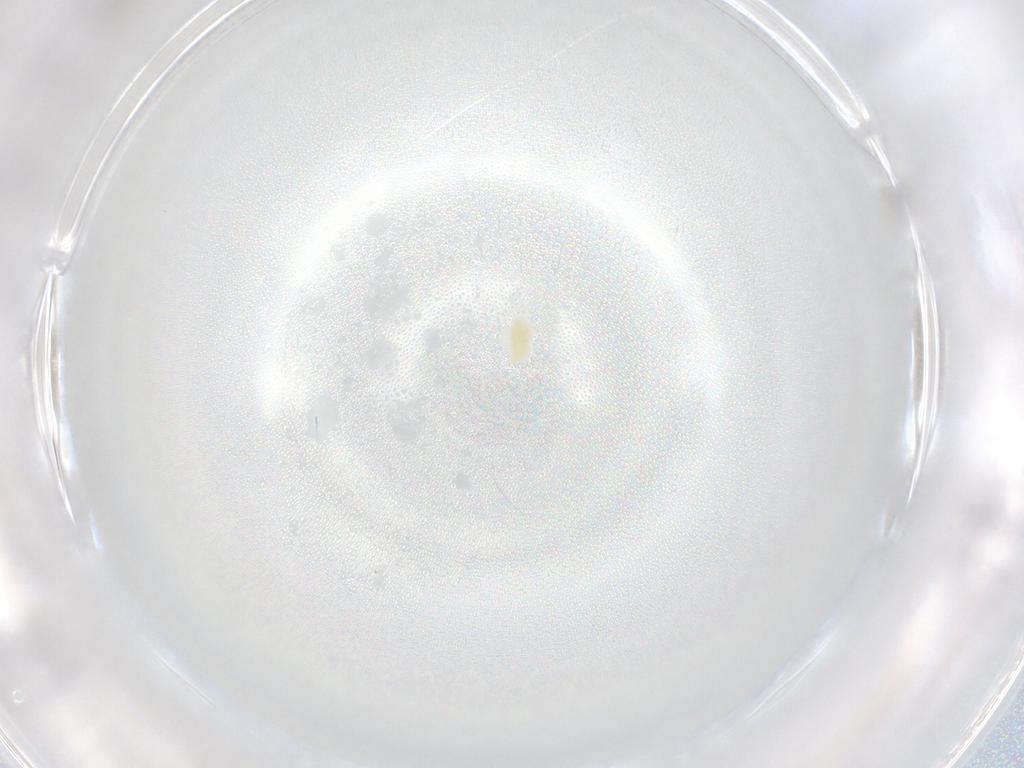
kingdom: Animalia
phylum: Arthropoda
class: Arachnida
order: Trombidiformes
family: Eupodidae
